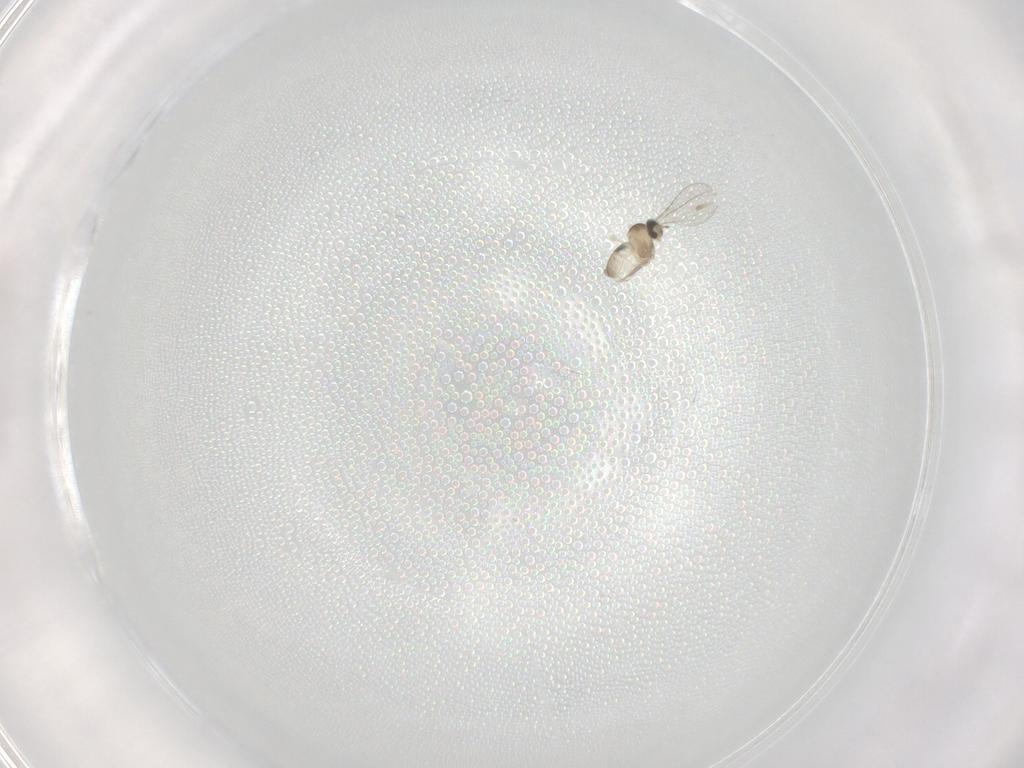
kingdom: Animalia
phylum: Arthropoda
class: Insecta
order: Diptera
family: Cecidomyiidae
